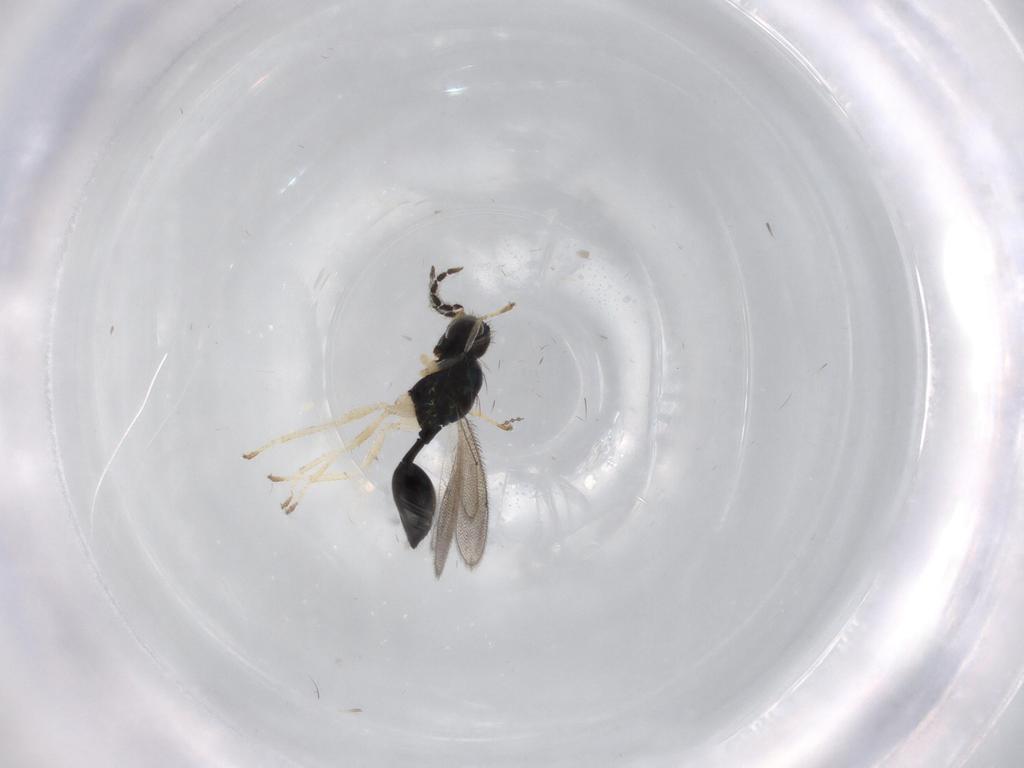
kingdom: Animalia
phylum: Arthropoda
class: Insecta
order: Hymenoptera
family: Eulophidae
